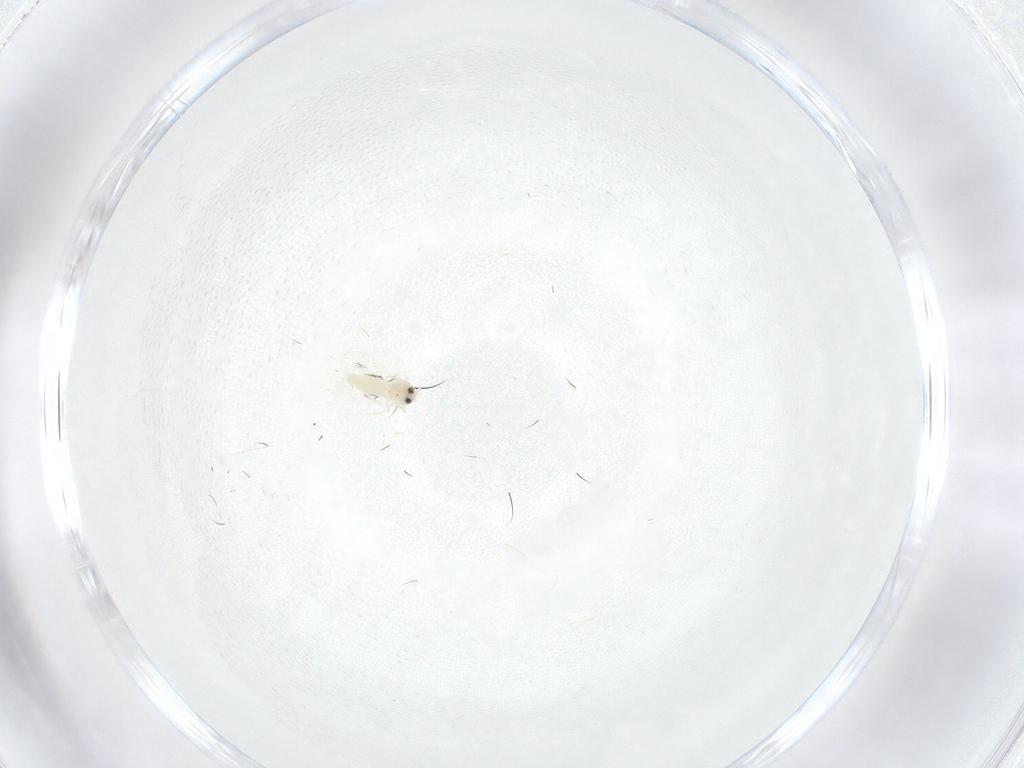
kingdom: Animalia
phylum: Arthropoda
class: Insecta
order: Hemiptera
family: Aleyrodidae
